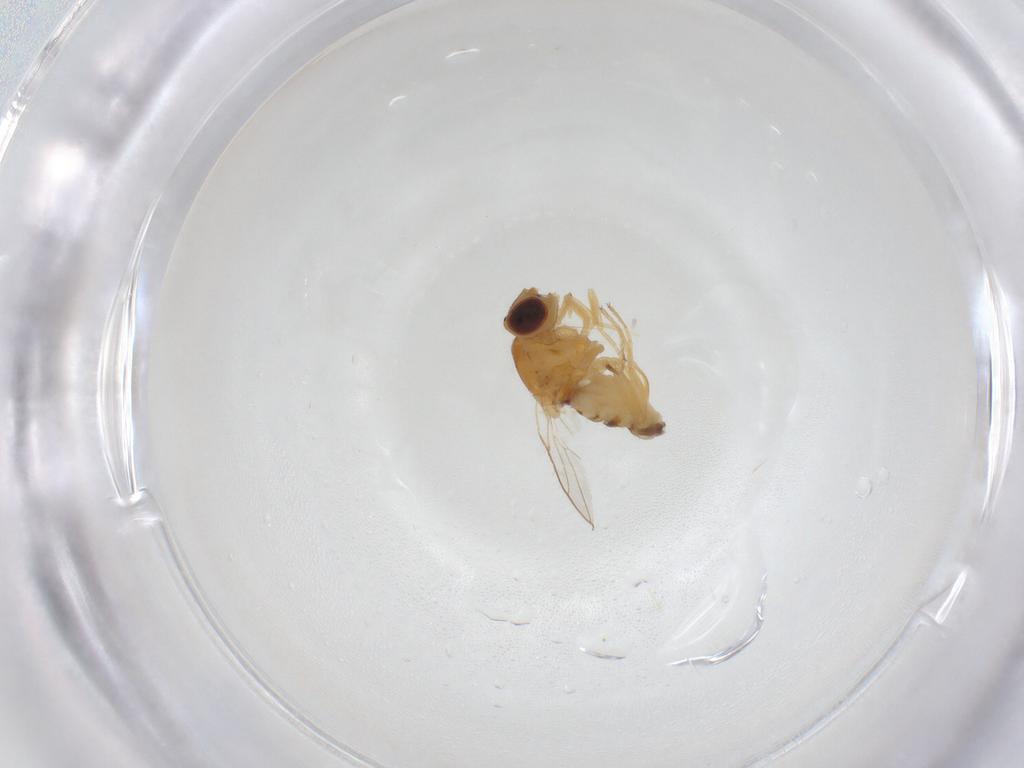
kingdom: Animalia
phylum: Arthropoda
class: Insecta
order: Diptera
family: Chloropidae
